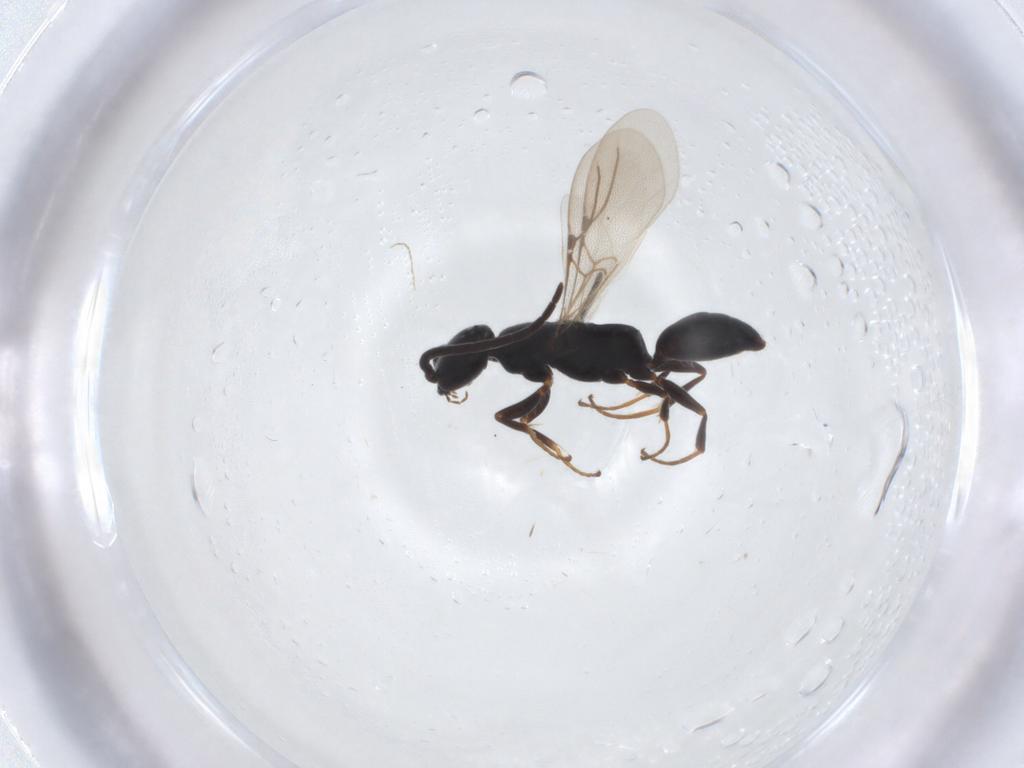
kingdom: Animalia
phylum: Arthropoda
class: Insecta
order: Hymenoptera
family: Bethylidae
